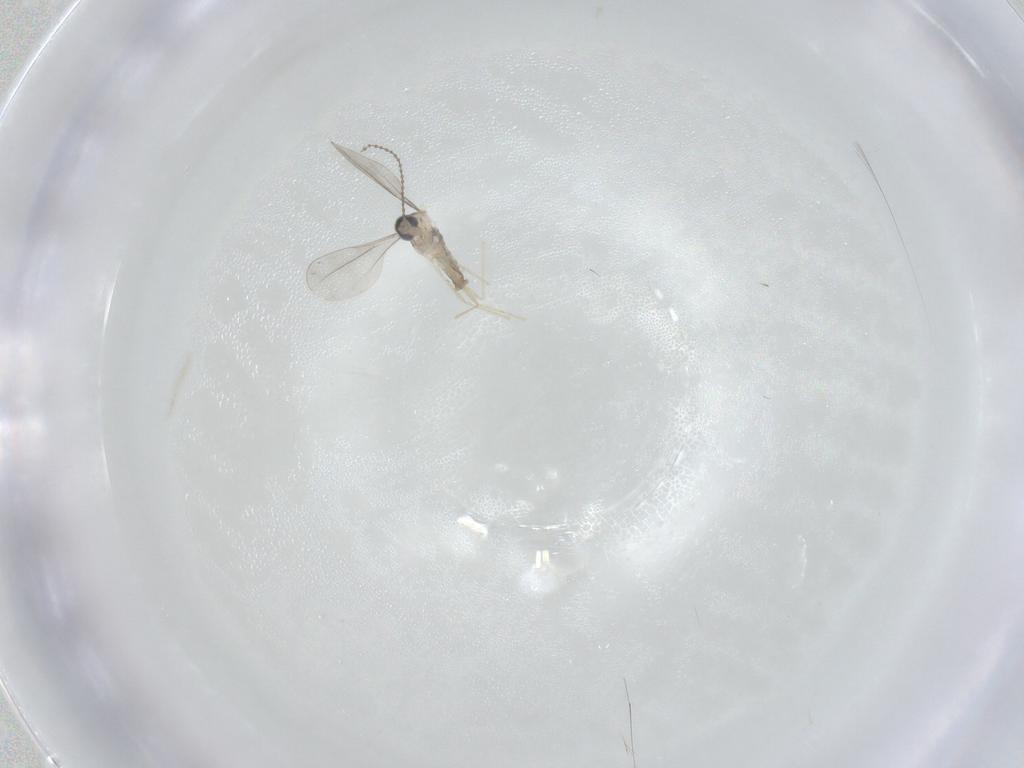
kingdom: Animalia
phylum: Arthropoda
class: Insecta
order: Diptera
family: Cecidomyiidae
